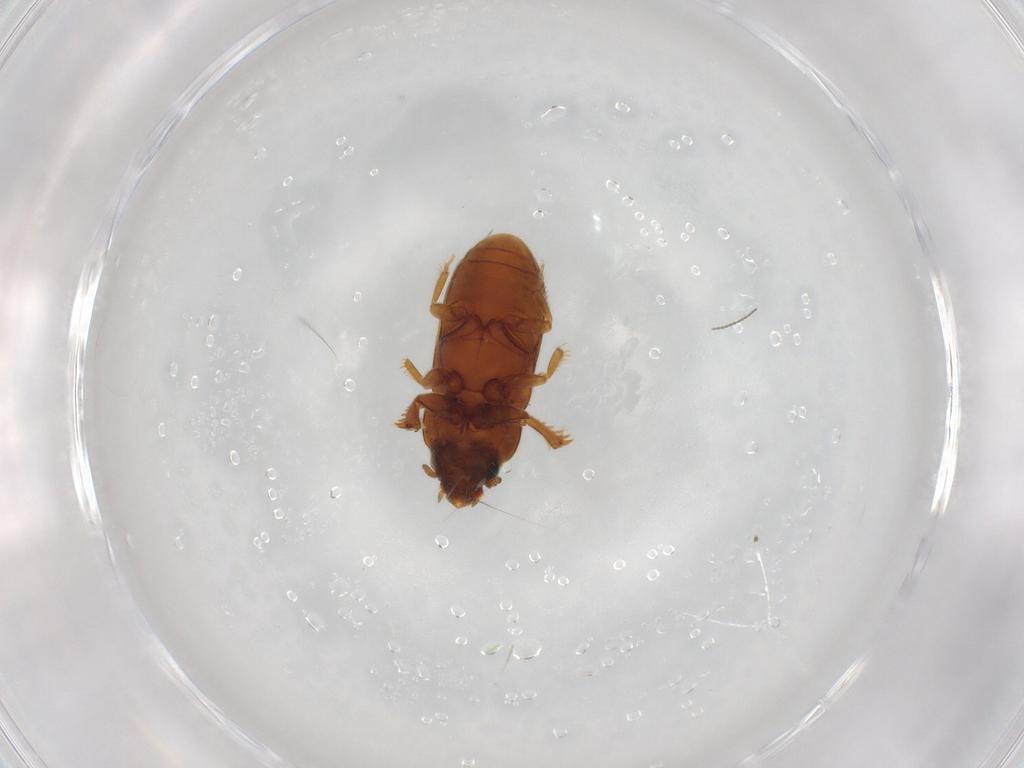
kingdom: Animalia
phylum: Arthropoda
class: Insecta
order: Coleoptera
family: Heteroceridae
